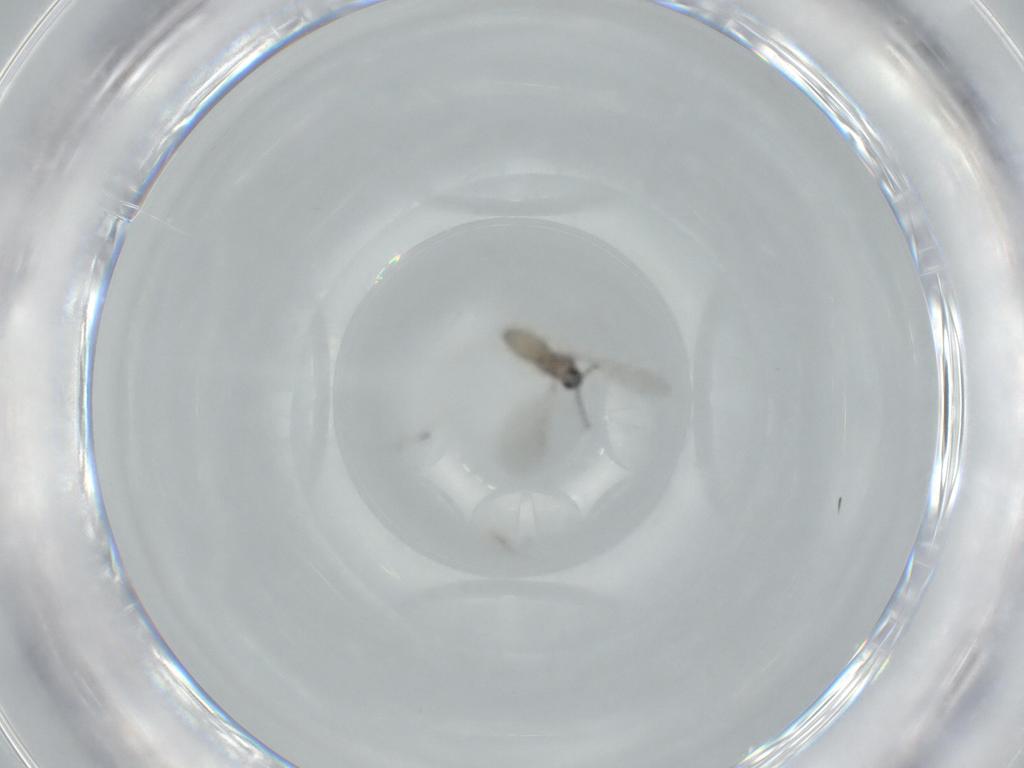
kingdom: Animalia
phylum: Arthropoda
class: Insecta
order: Diptera
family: Cecidomyiidae
